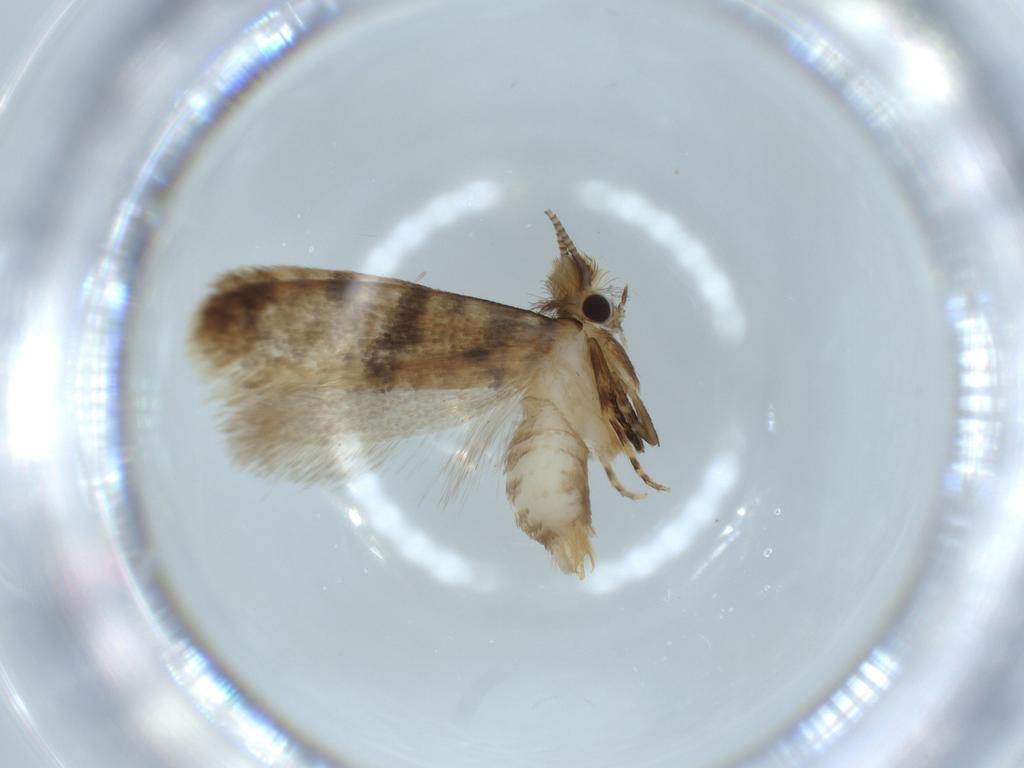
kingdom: Animalia
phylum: Arthropoda
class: Insecta
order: Lepidoptera
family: Tineidae
